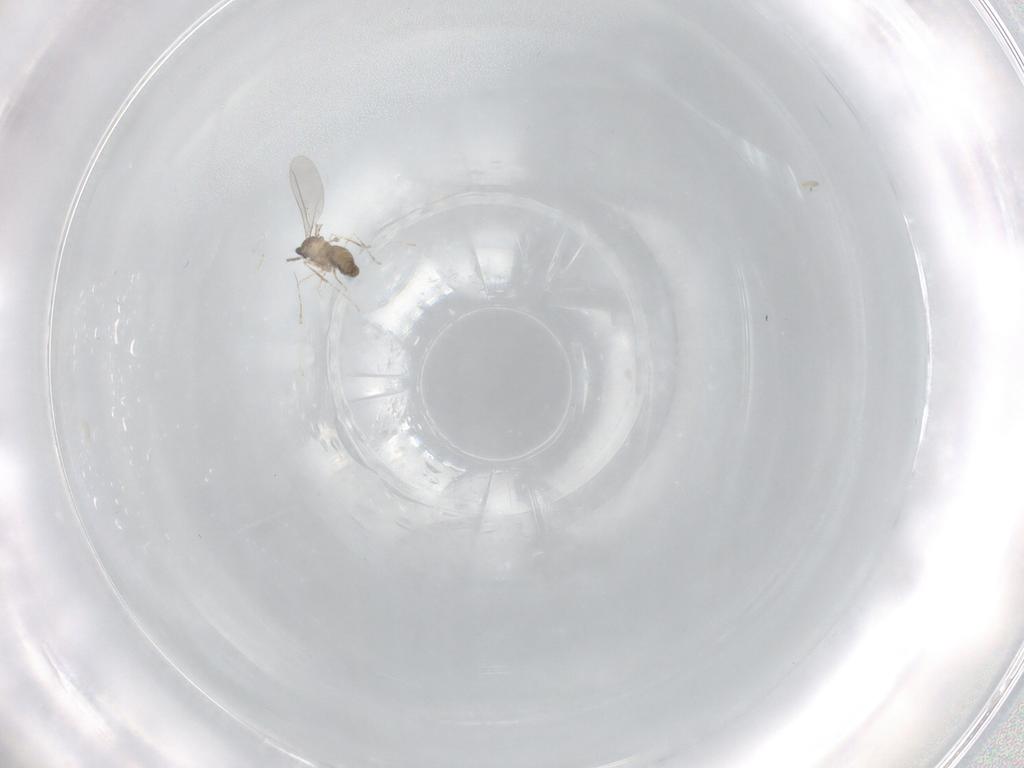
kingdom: Animalia
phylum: Arthropoda
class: Insecta
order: Diptera
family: Cecidomyiidae
